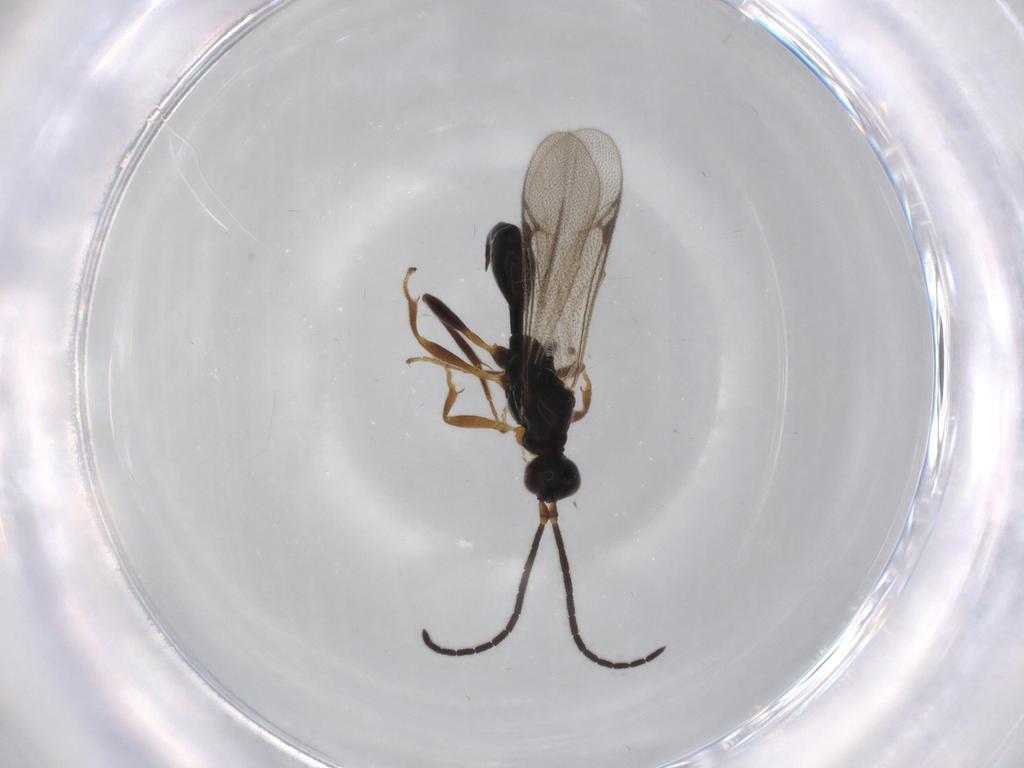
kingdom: Animalia
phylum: Arthropoda
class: Insecta
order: Hymenoptera
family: Proctotrupidae
